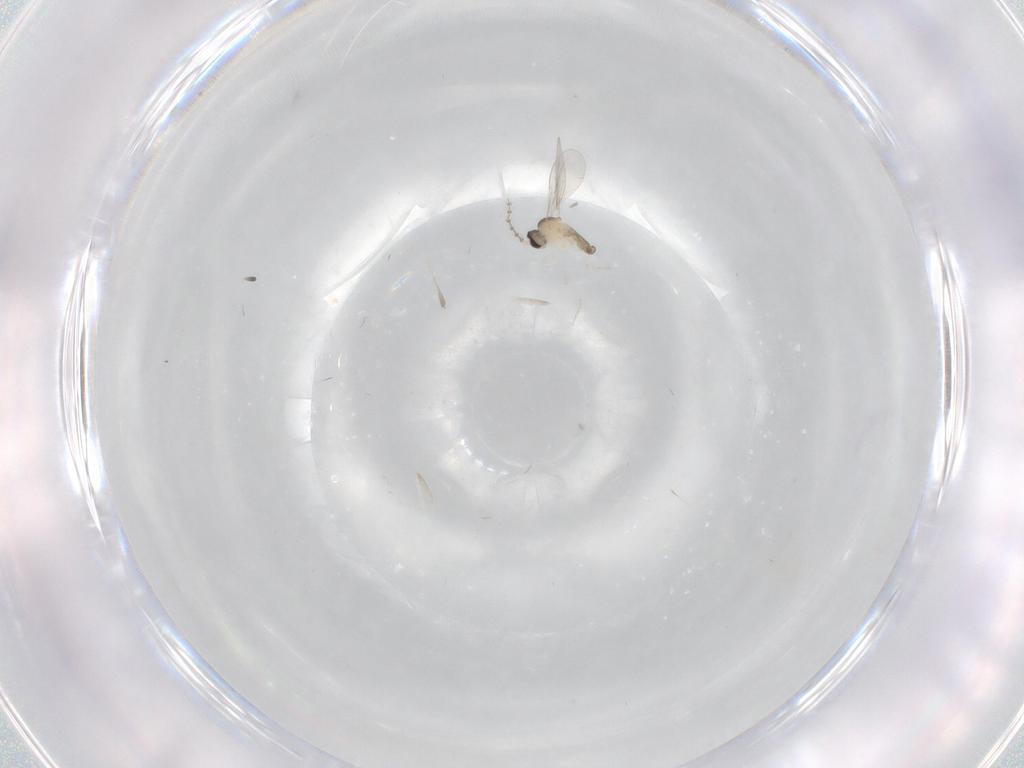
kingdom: Animalia
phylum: Arthropoda
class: Insecta
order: Diptera
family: Cecidomyiidae
